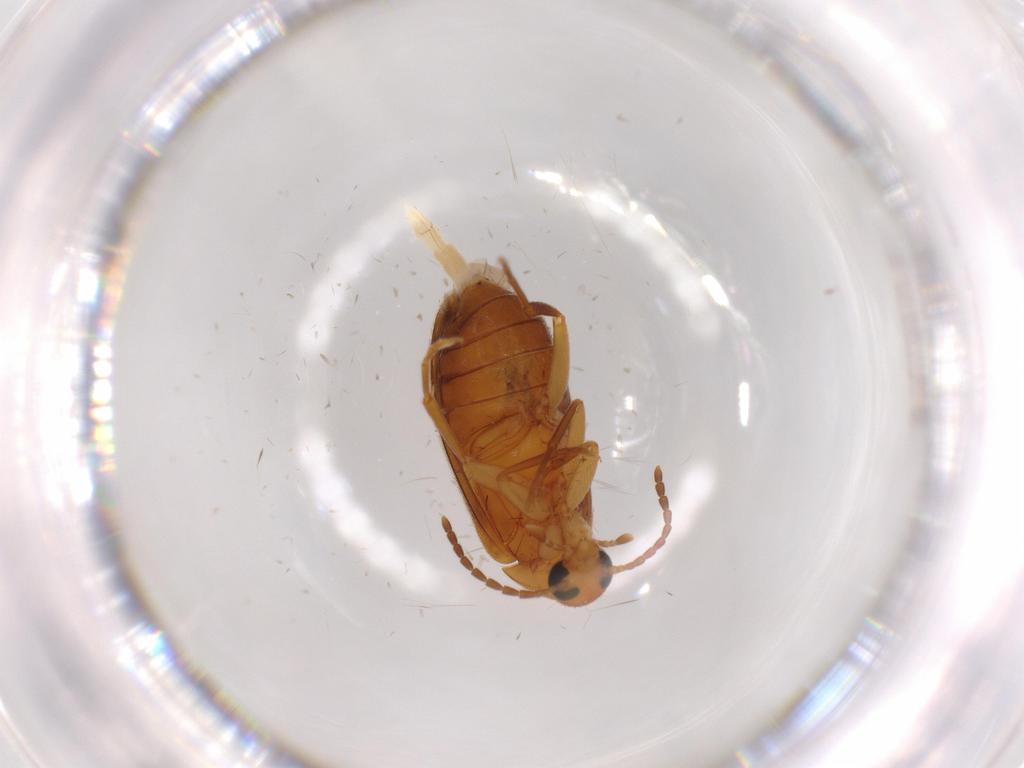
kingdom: Animalia
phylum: Arthropoda
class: Insecta
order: Coleoptera
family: Scraptiidae
